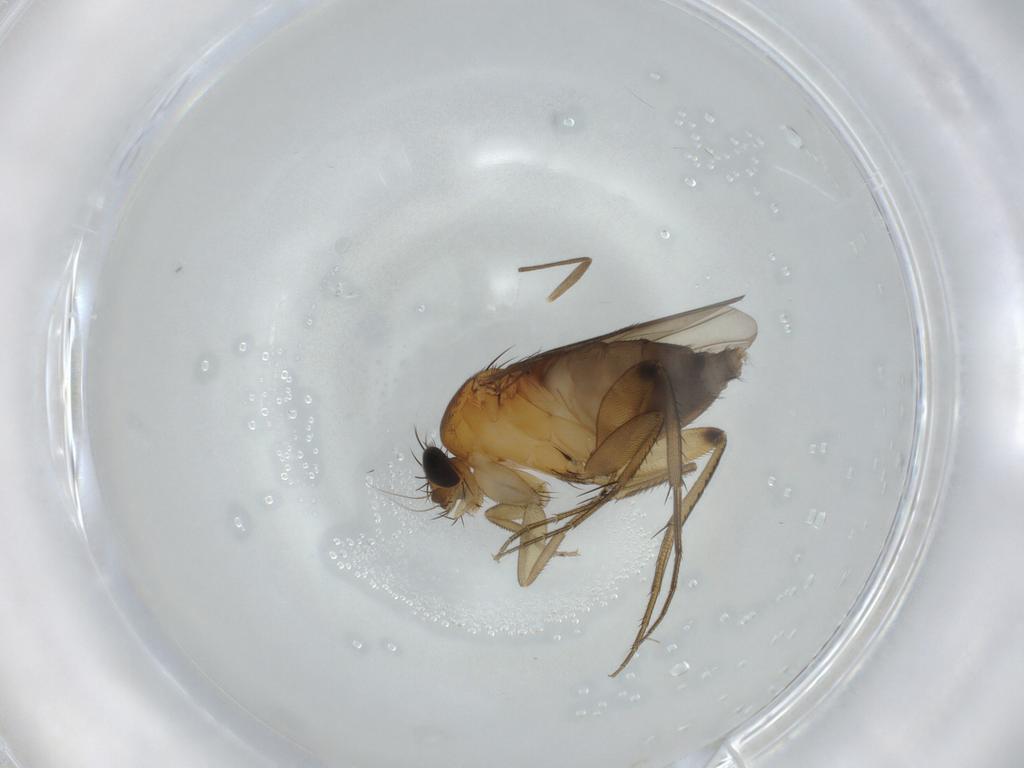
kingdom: Animalia
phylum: Arthropoda
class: Insecta
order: Diptera
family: Phoridae
